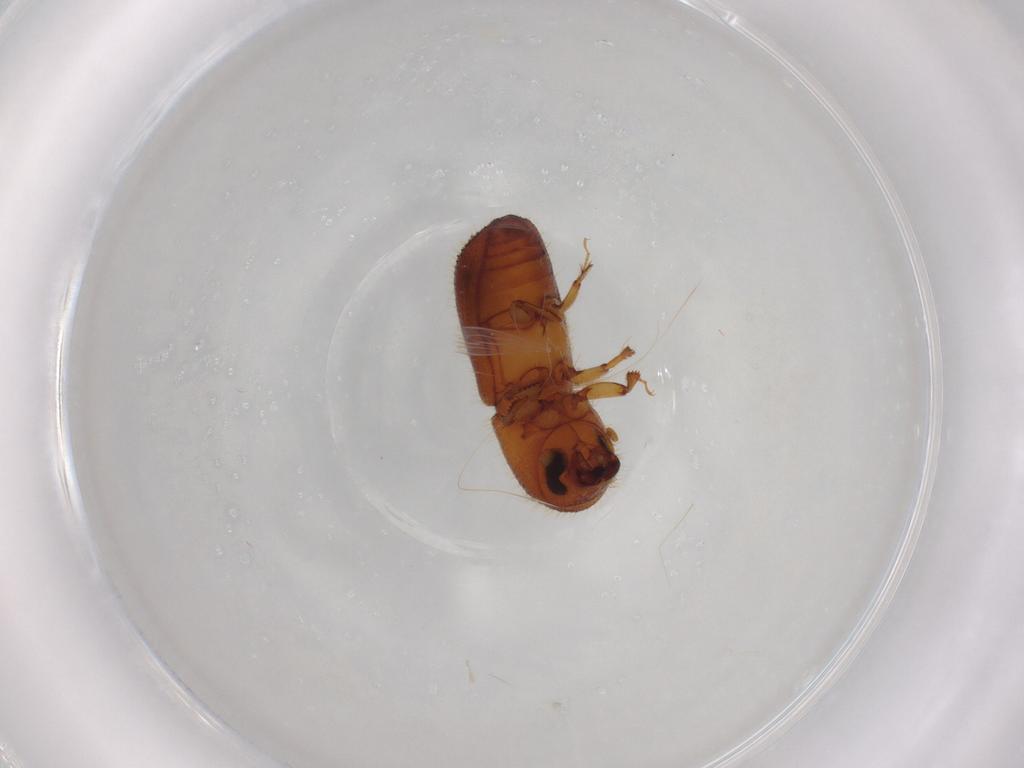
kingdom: Animalia
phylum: Arthropoda
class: Insecta
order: Coleoptera
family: Curculionidae
